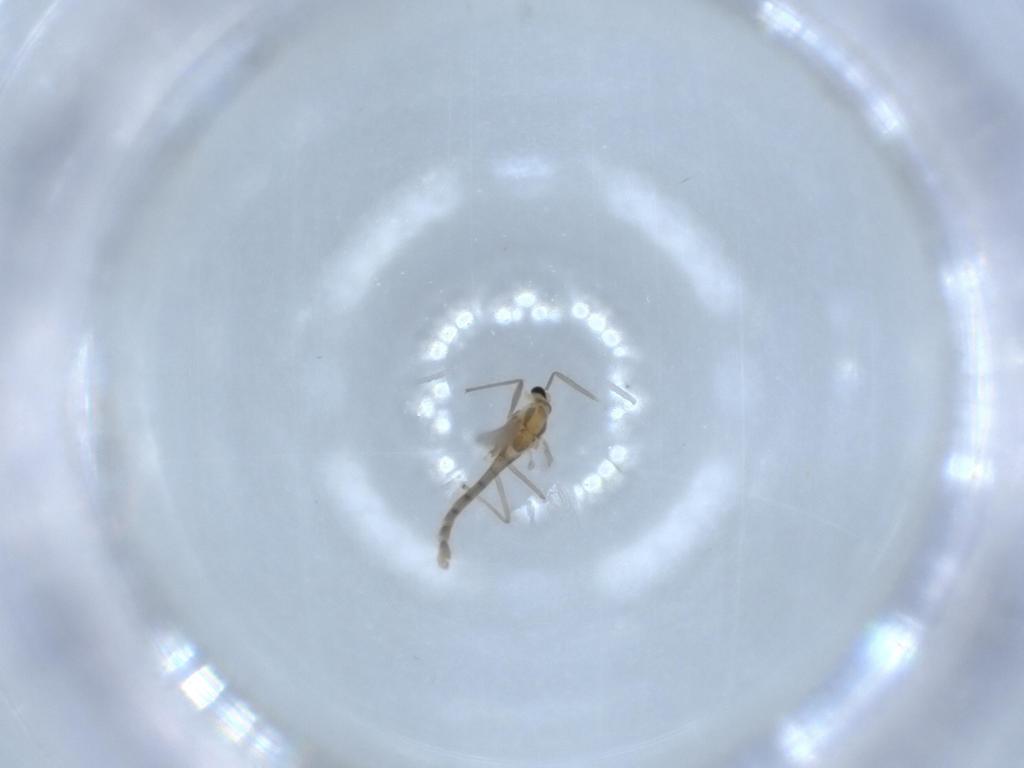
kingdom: Animalia
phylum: Arthropoda
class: Insecta
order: Diptera
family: Chironomidae
